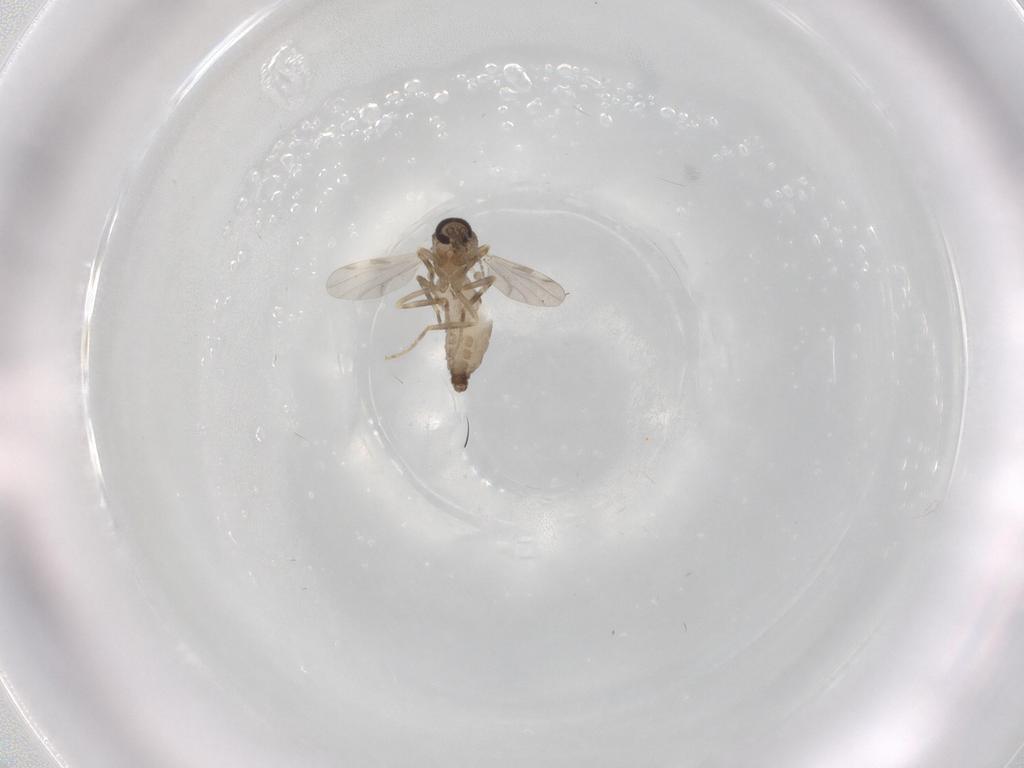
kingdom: Animalia
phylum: Arthropoda
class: Insecta
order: Diptera
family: Ceratopogonidae
